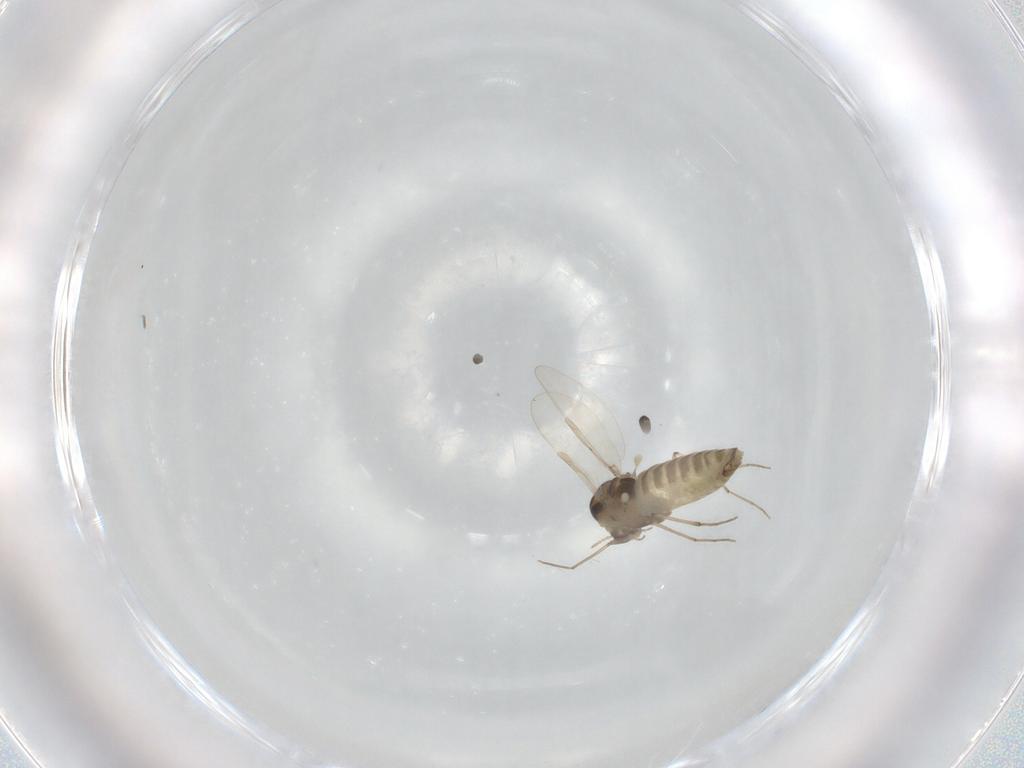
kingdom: Animalia
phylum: Arthropoda
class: Insecta
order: Diptera
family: Chironomidae
